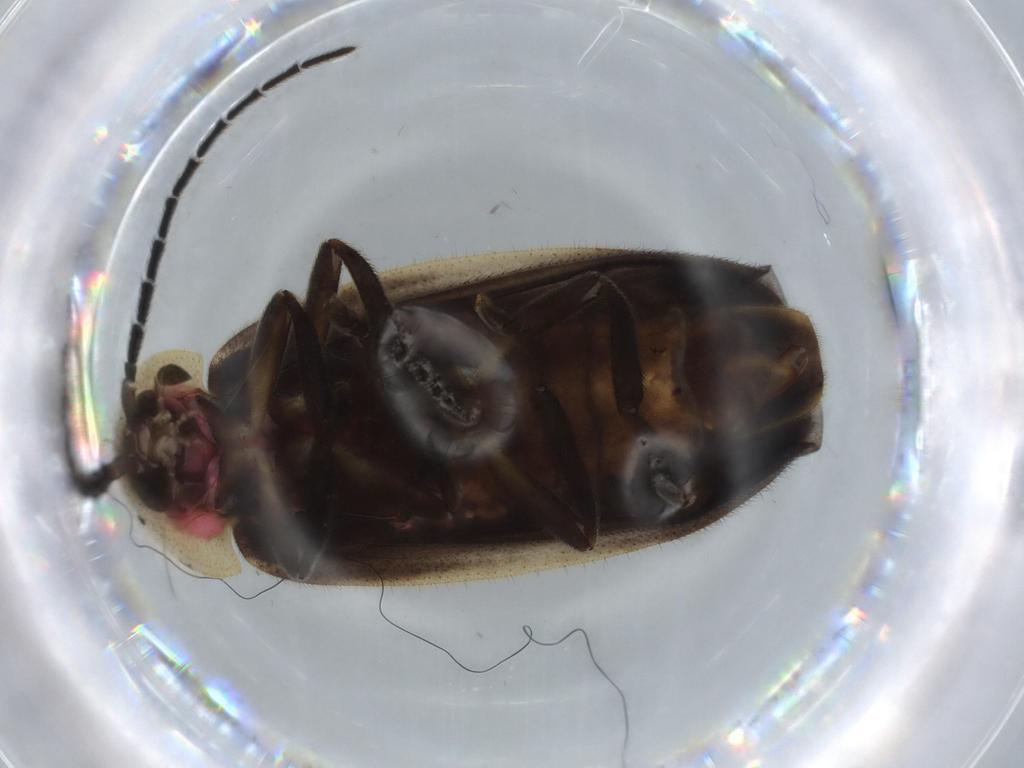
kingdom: Animalia
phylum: Arthropoda
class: Insecta
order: Coleoptera
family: Lampyridae
